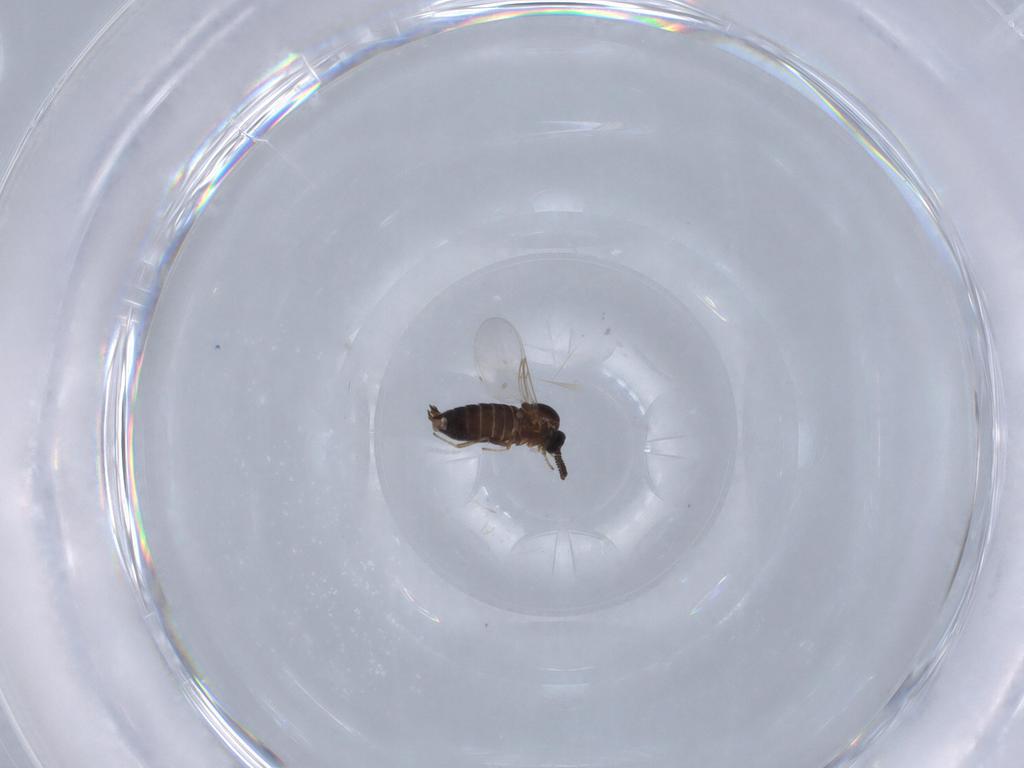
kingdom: Animalia
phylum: Arthropoda
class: Insecta
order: Diptera
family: Scatopsidae
